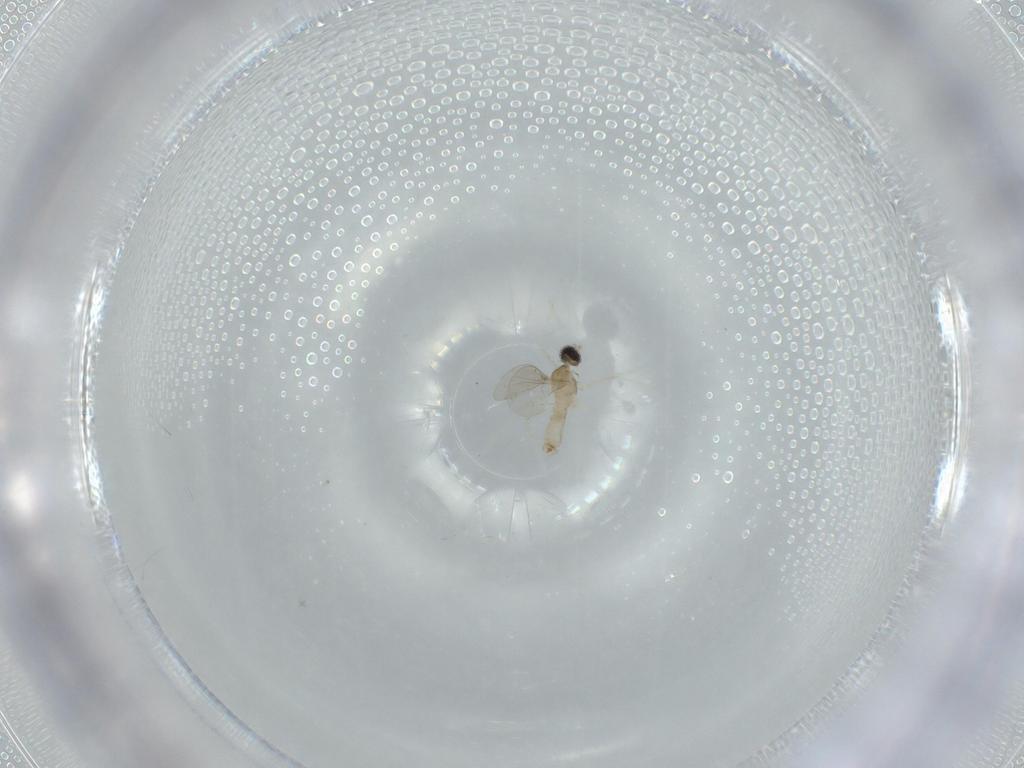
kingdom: Animalia
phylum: Arthropoda
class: Insecta
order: Diptera
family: Cecidomyiidae
